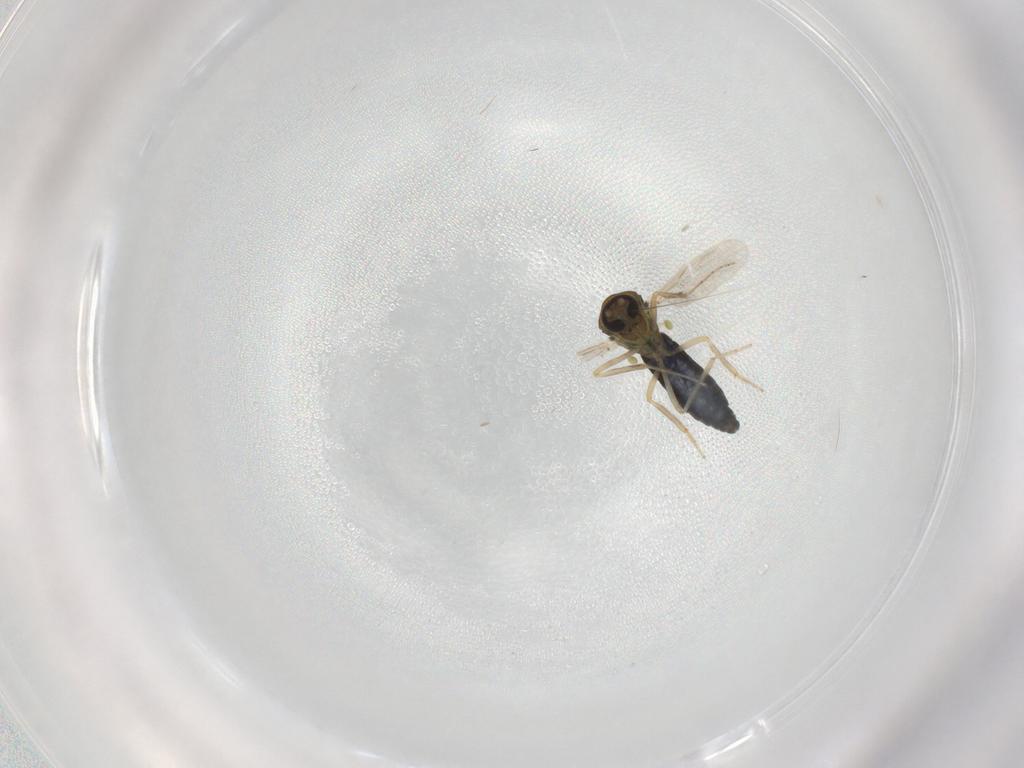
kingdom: Animalia
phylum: Arthropoda
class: Insecta
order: Diptera
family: Ceratopogonidae
